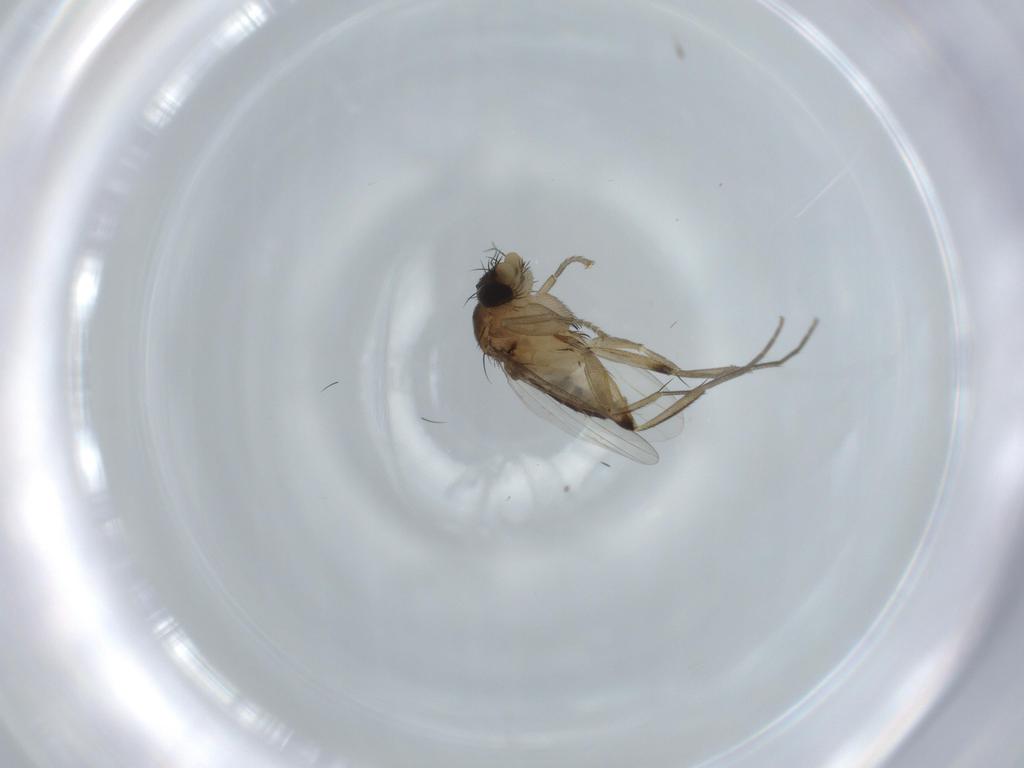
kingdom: Animalia
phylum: Arthropoda
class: Insecta
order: Diptera
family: Phoridae
